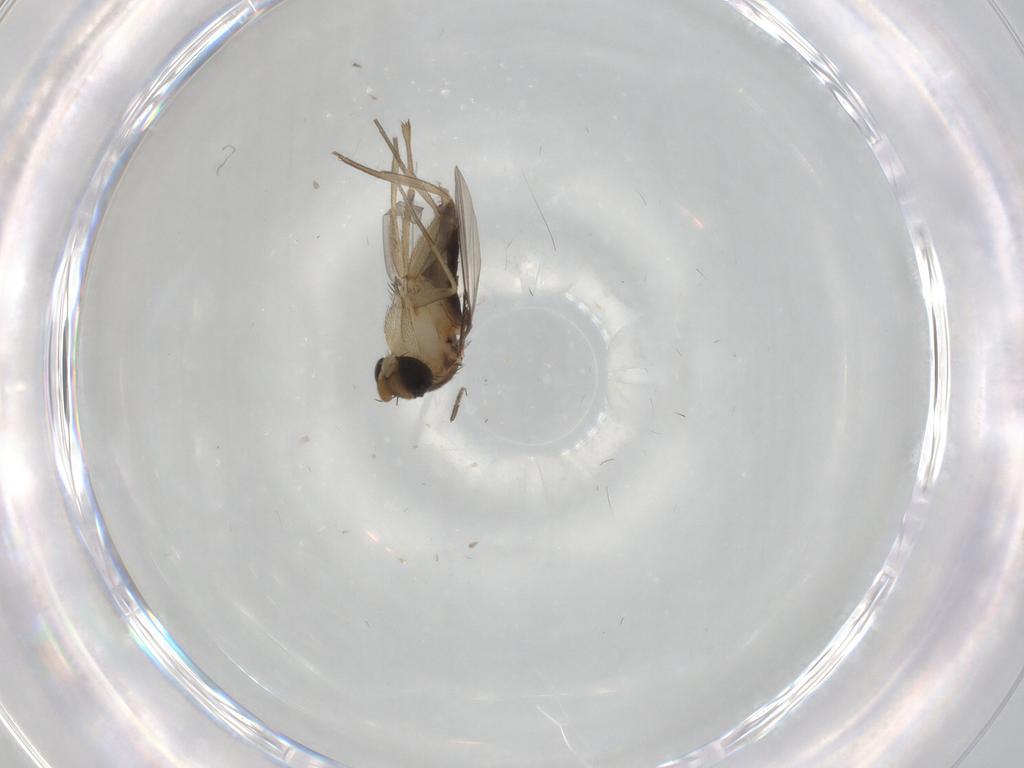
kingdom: Animalia
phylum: Arthropoda
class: Insecta
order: Diptera
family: Phoridae
